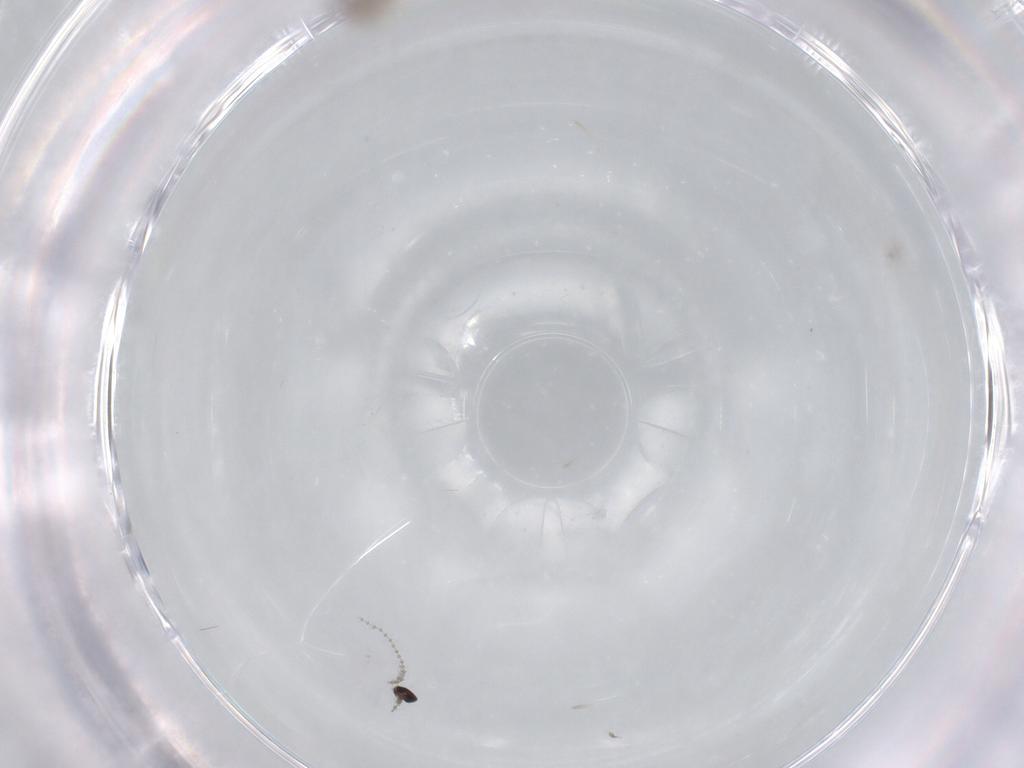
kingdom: Animalia
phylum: Arthropoda
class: Insecta
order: Diptera
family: Cecidomyiidae
